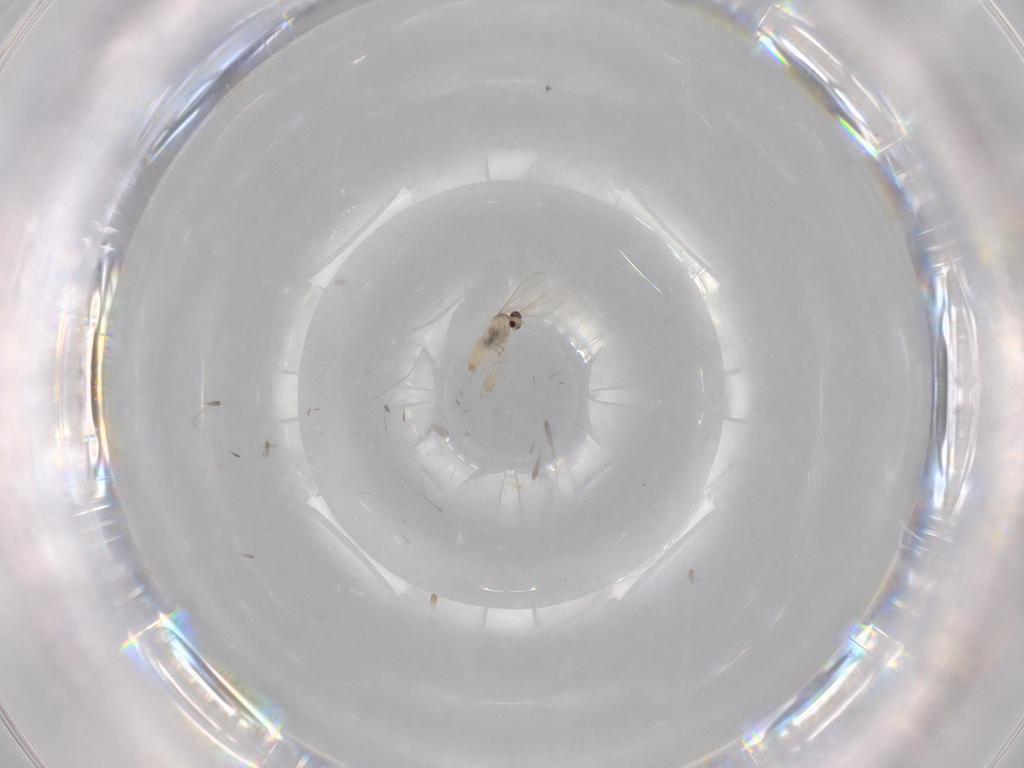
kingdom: Animalia
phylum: Arthropoda
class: Insecta
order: Diptera
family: Cecidomyiidae
